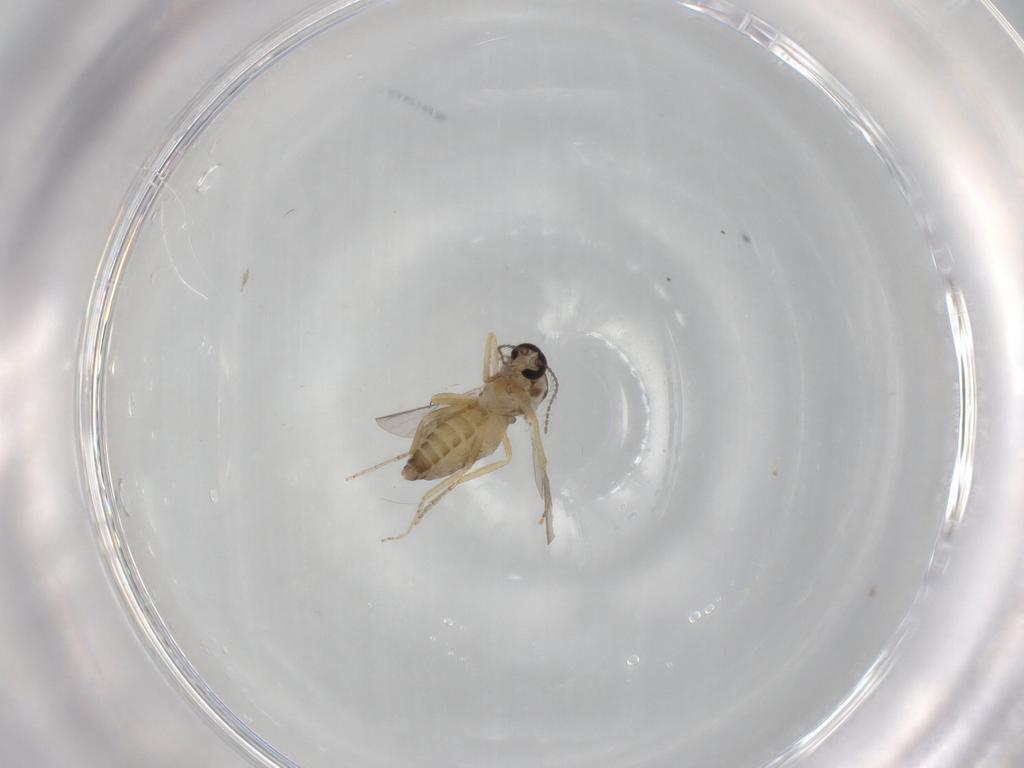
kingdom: Animalia
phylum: Arthropoda
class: Insecta
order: Diptera
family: Ceratopogonidae
